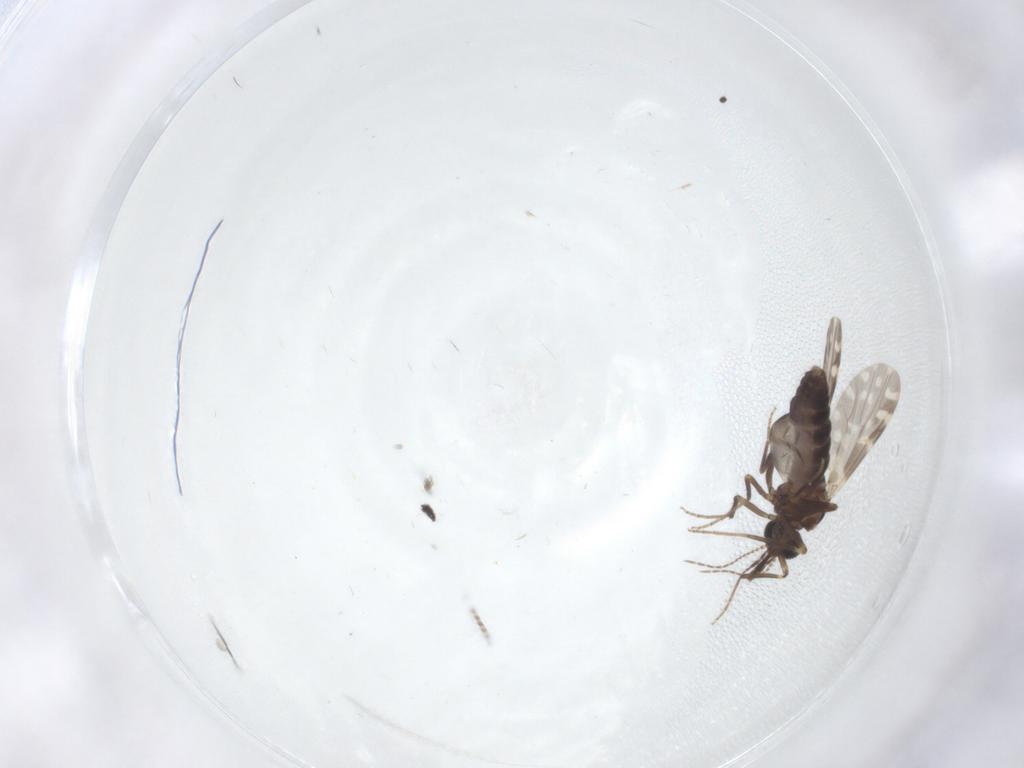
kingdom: Animalia
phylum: Arthropoda
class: Insecta
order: Diptera
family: Ceratopogonidae
